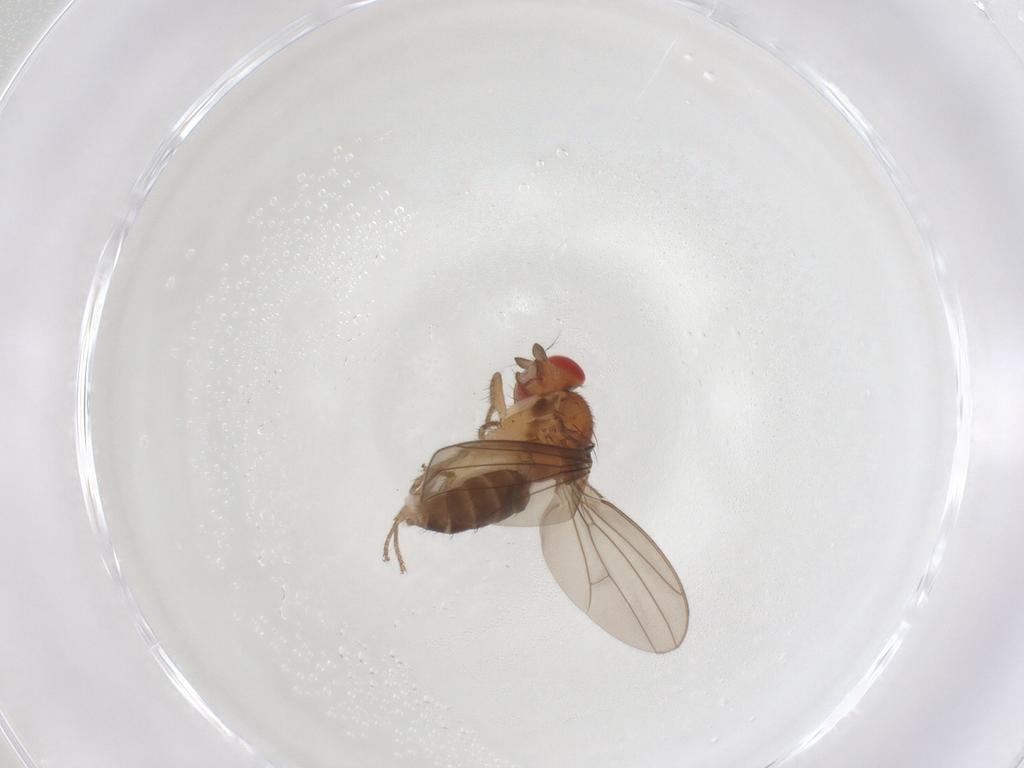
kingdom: Animalia
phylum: Arthropoda
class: Insecta
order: Diptera
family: Drosophilidae
